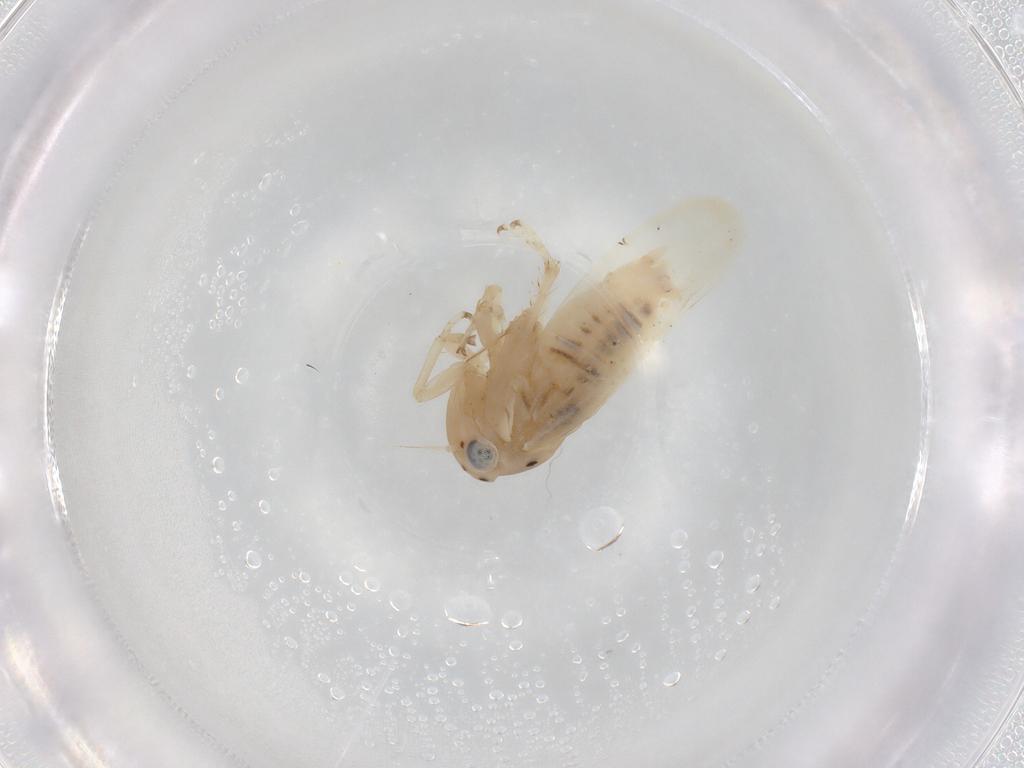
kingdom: Animalia
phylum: Arthropoda
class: Insecta
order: Hemiptera
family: Cicadellidae
